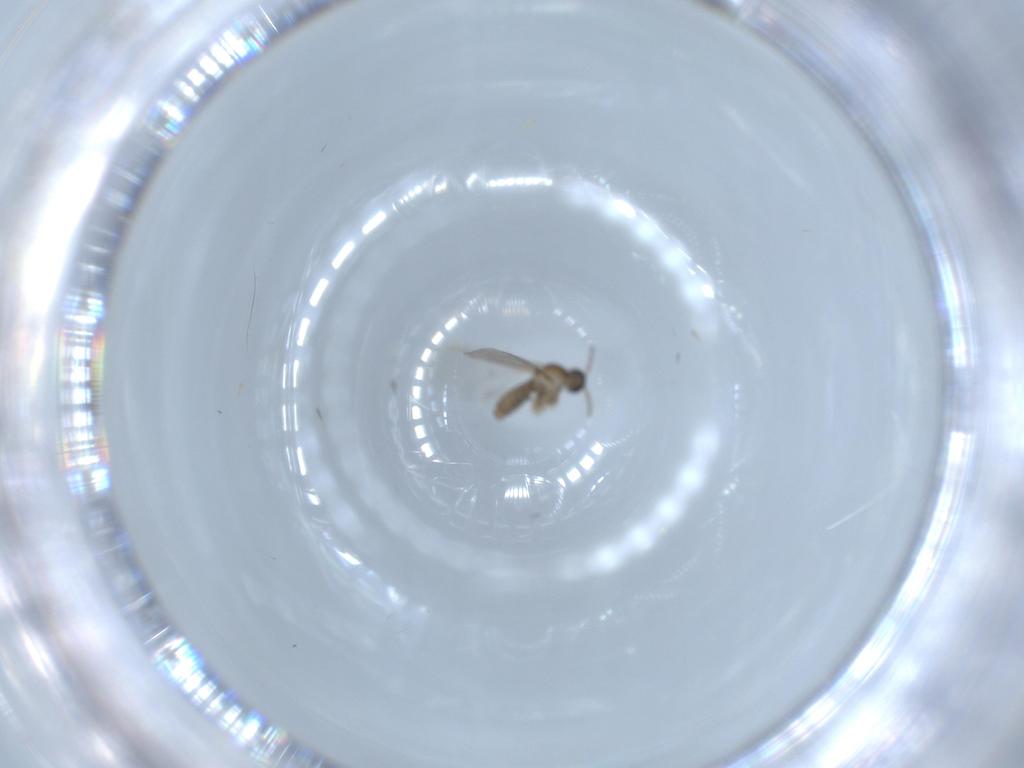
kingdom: Animalia
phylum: Arthropoda
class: Insecta
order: Diptera
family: Cecidomyiidae
